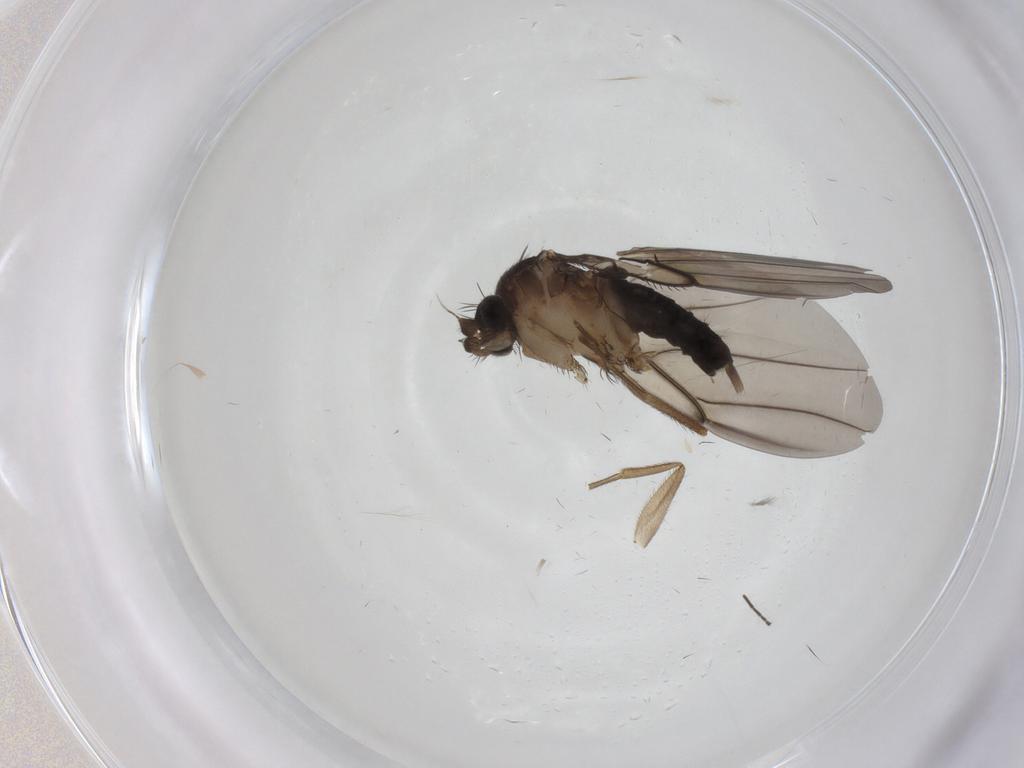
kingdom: Animalia
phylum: Arthropoda
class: Insecta
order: Diptera
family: Phoridae
